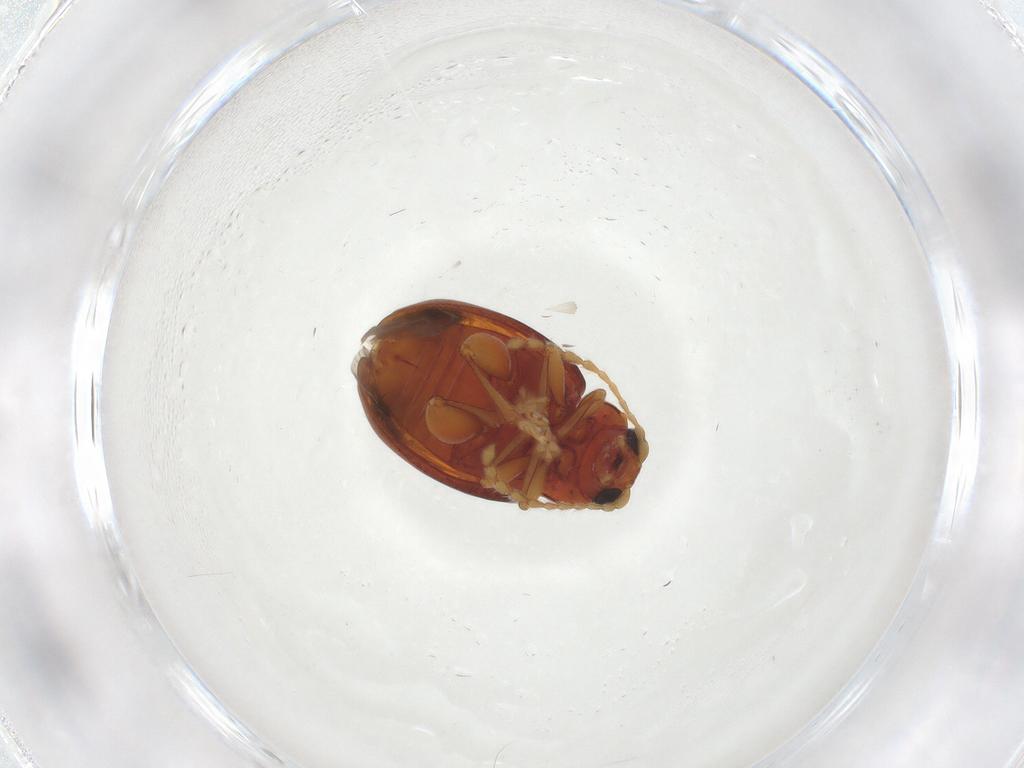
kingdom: Animalia
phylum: Arthropoda
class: Insecta
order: Coleoptera
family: Chrysomelidae
